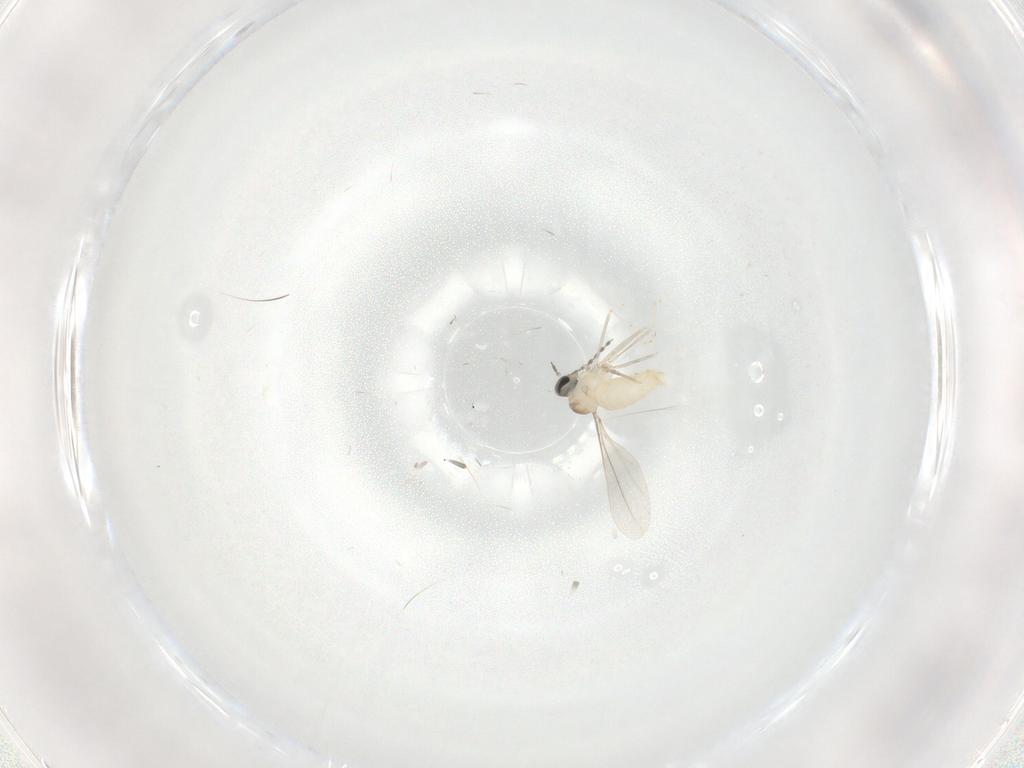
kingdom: Animalia
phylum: Arthropoda
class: Insecta
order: Diptera
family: Cecidomyiidae
